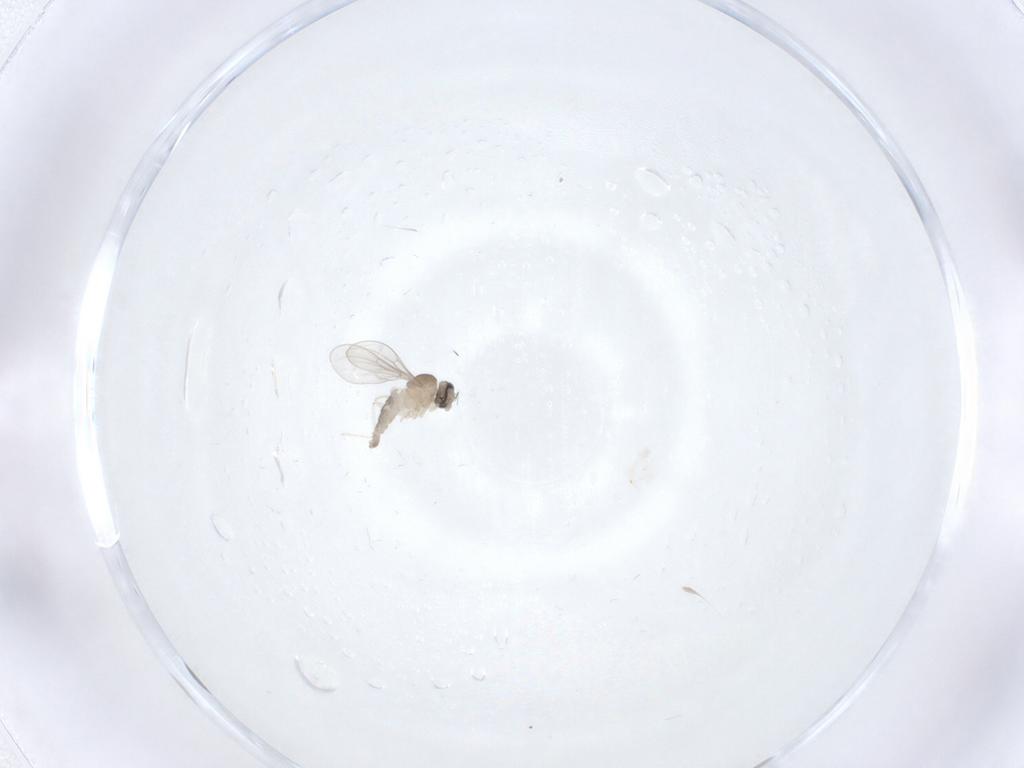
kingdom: Animalia
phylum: Arthropoda
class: Insecta
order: Diptera
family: Cecidomyiidae
